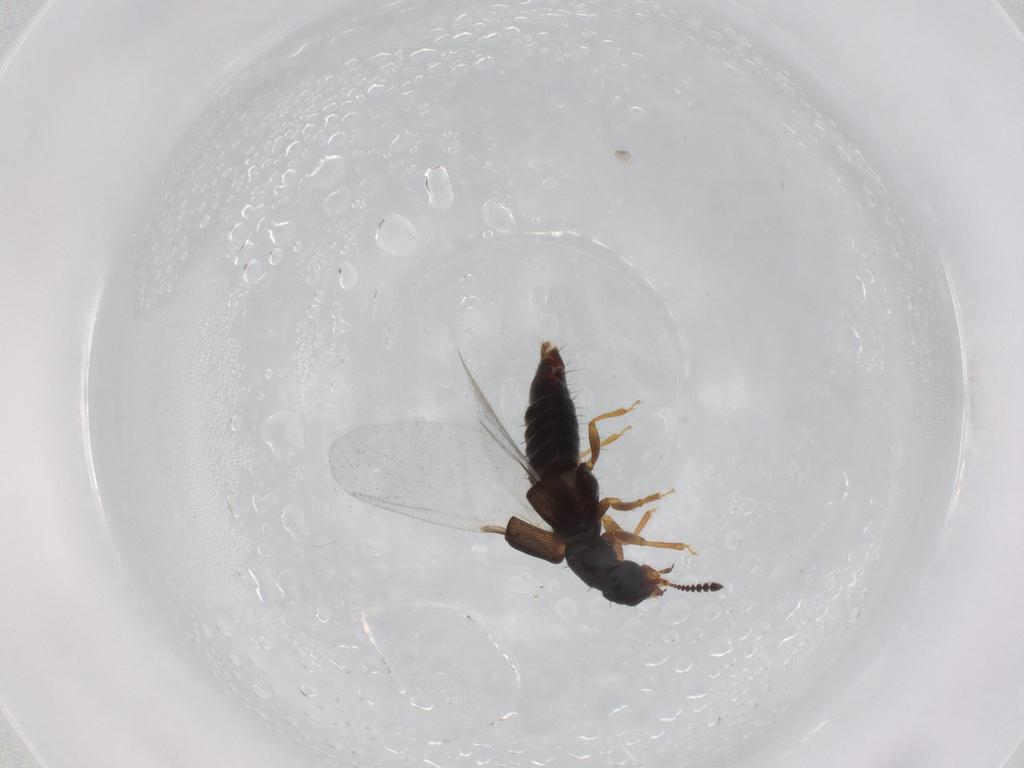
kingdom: Animalia
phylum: Arthropoda
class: Insecta
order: Coleoptera
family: Staphylinidae
